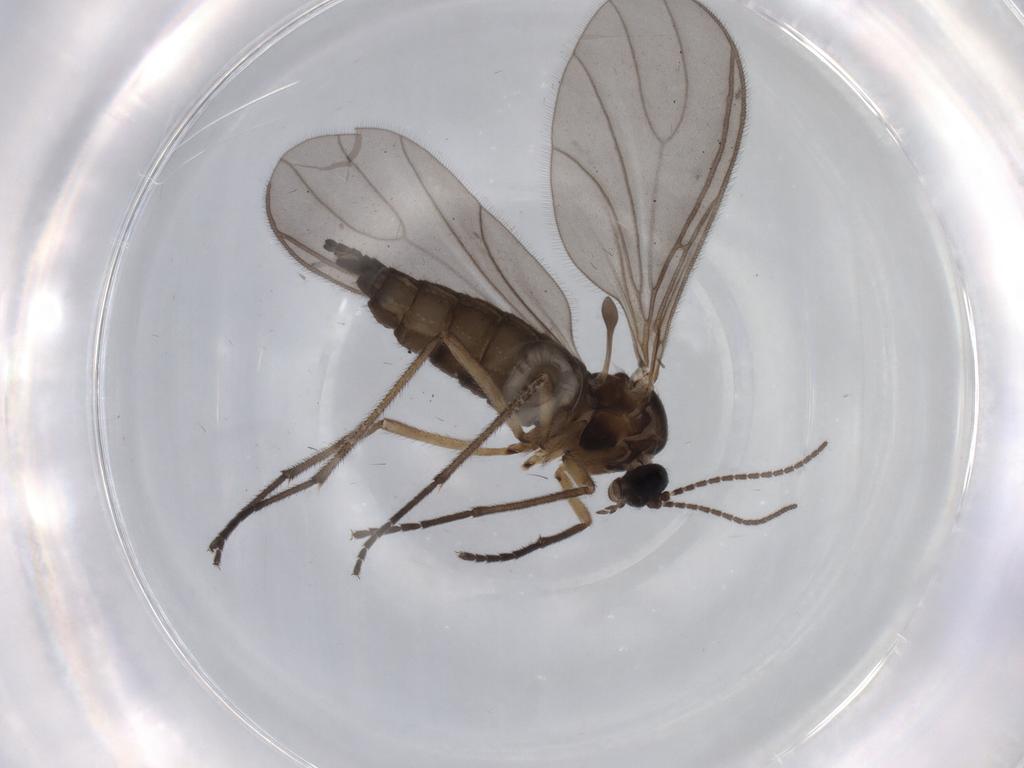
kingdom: Animalia
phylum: Arthropoda
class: Insecta
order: Diptera
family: Sciaridae
